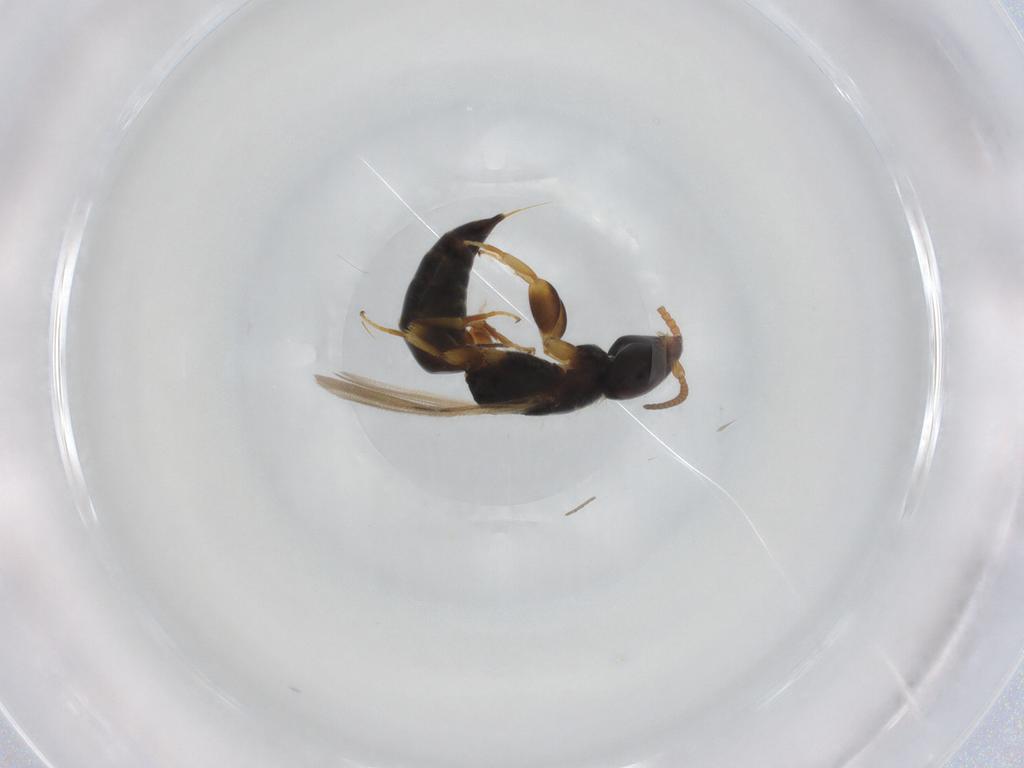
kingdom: Animalia
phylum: Arthropoda
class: Insecta
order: Hymenoptera
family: Bethylidae
